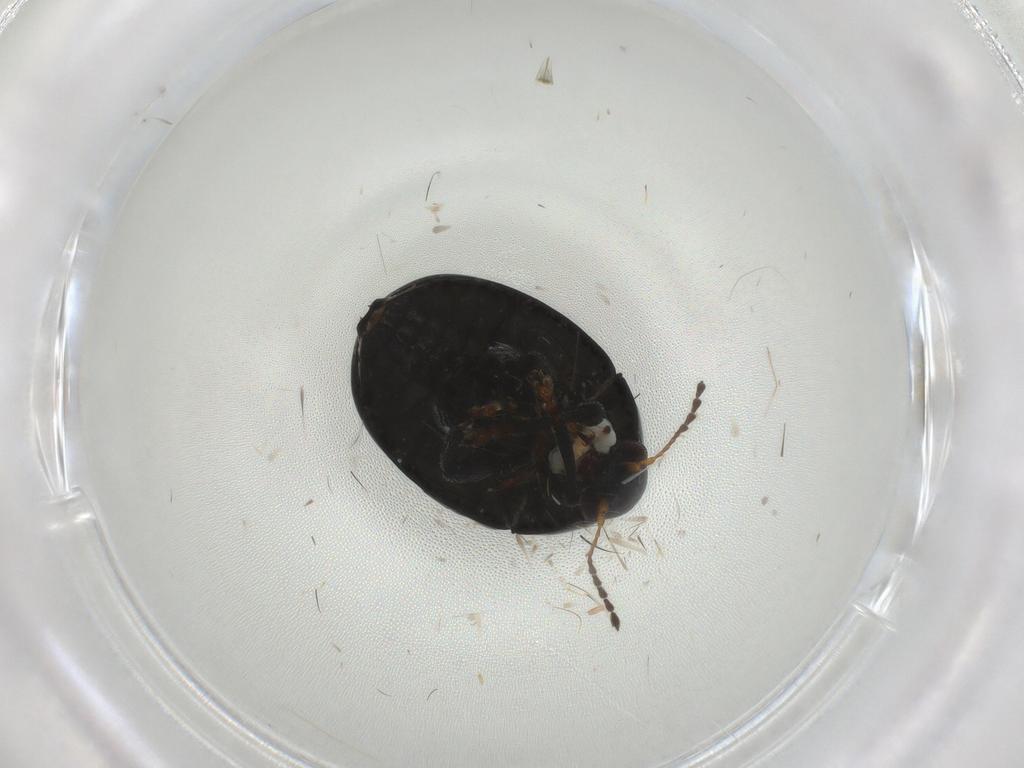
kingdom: Animalia
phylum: Arthropoda
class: Insecta
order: Coleoptera
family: Chrysomelidae
